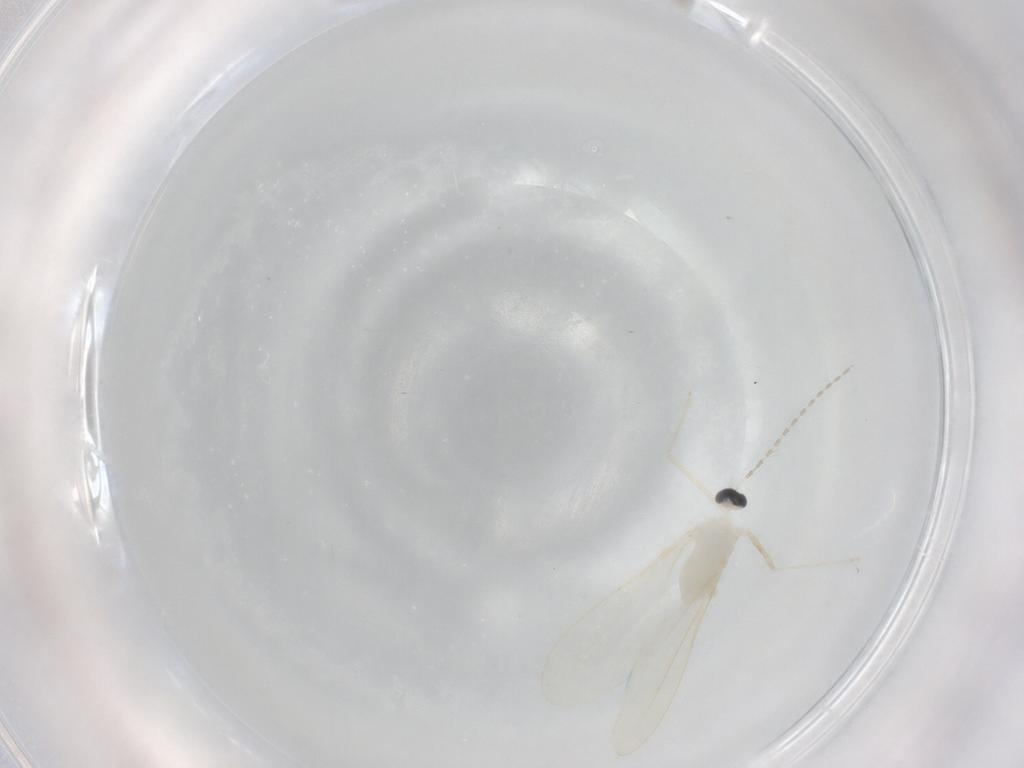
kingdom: Animalia
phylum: Arthropoda
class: Insecta
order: Diptera
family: Cecidomyiidae
